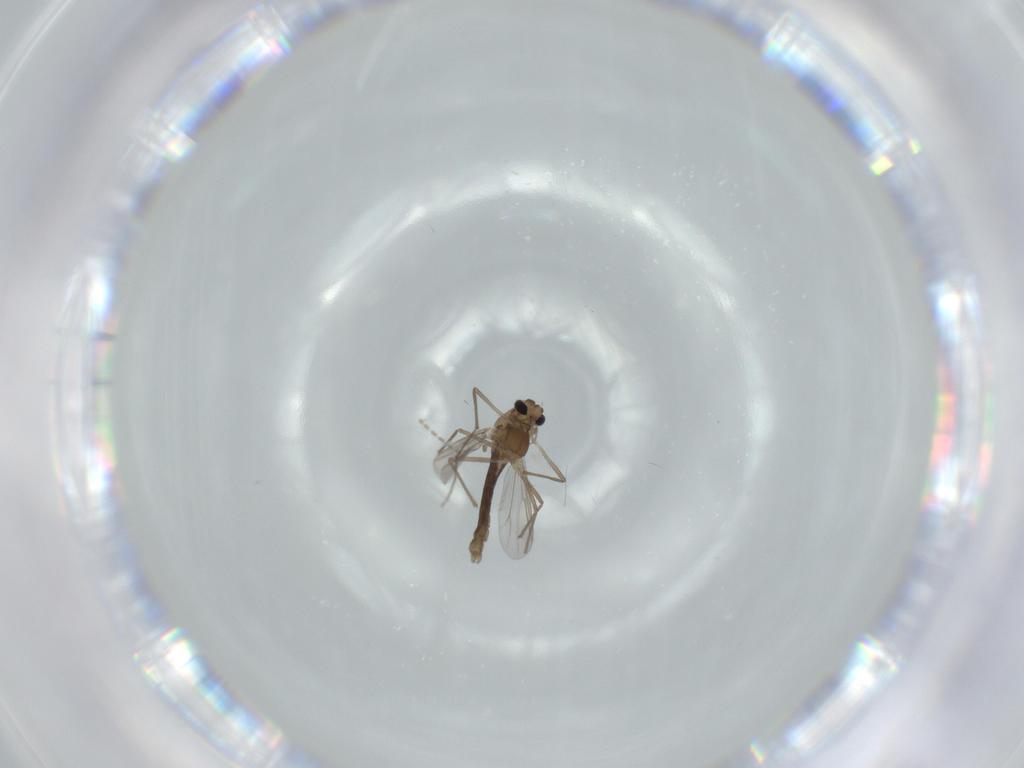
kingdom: Animalia
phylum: Arthropoda
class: Insecta
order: Diptera
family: Chironomidae
